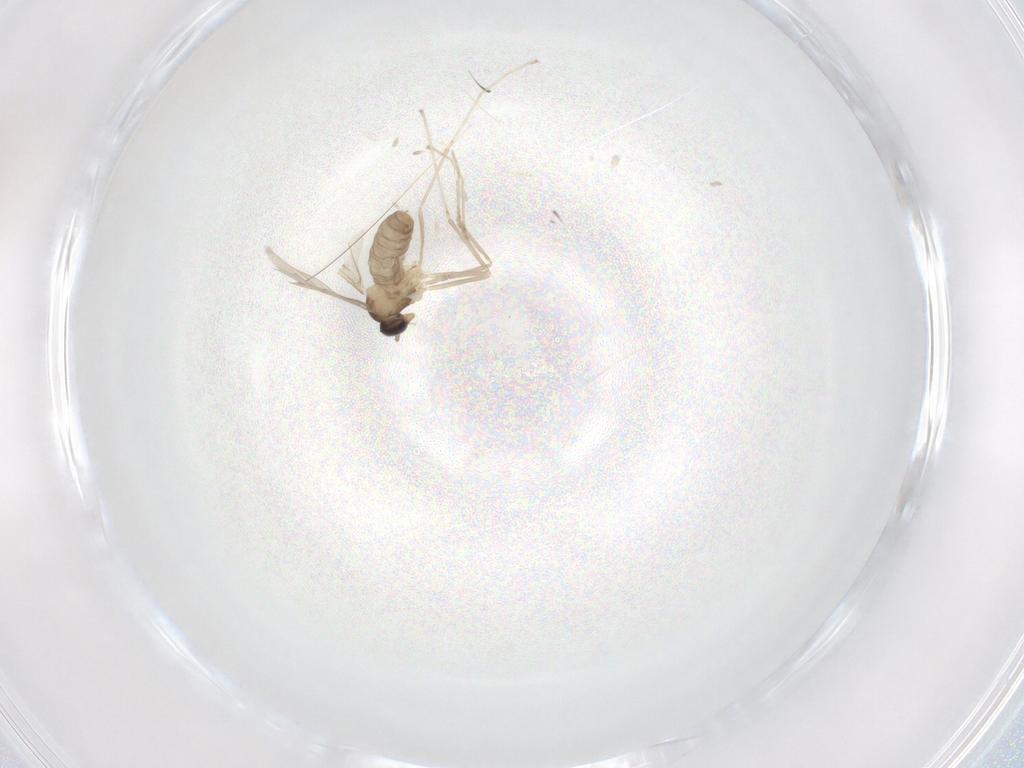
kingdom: Animalia
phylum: Arthropoda
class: Insecta
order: Diptera
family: Cecidomyiidae
